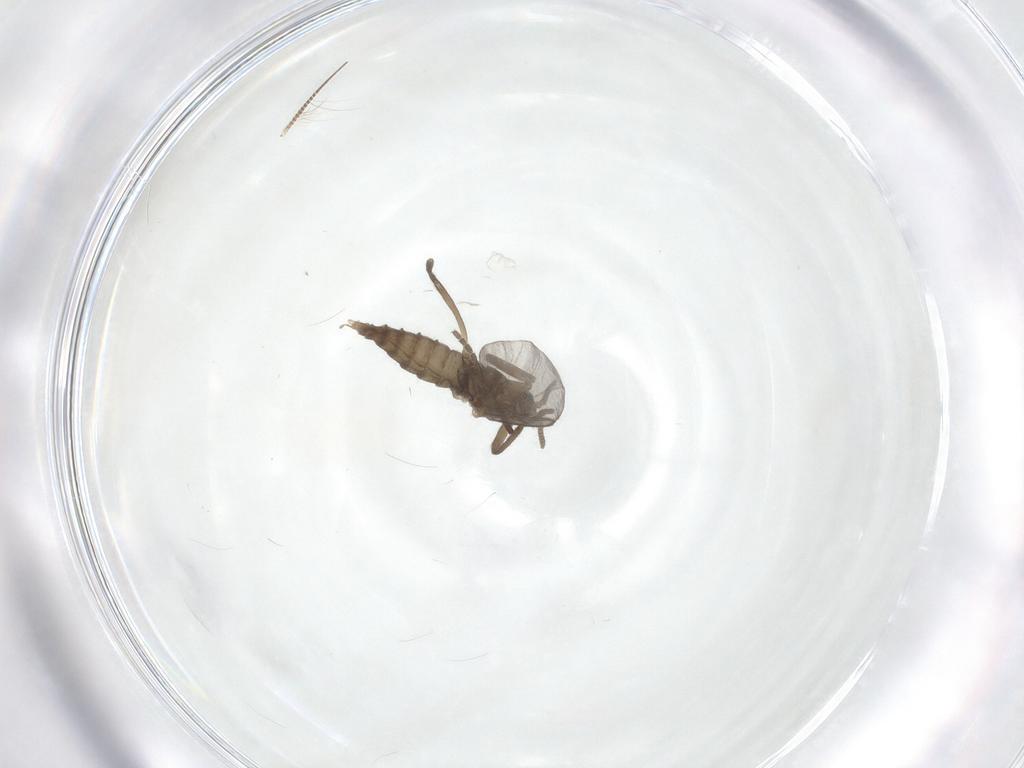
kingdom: Animalia
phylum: Arthropoda
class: Insecta
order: Diptera
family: Cecidomyiidae
